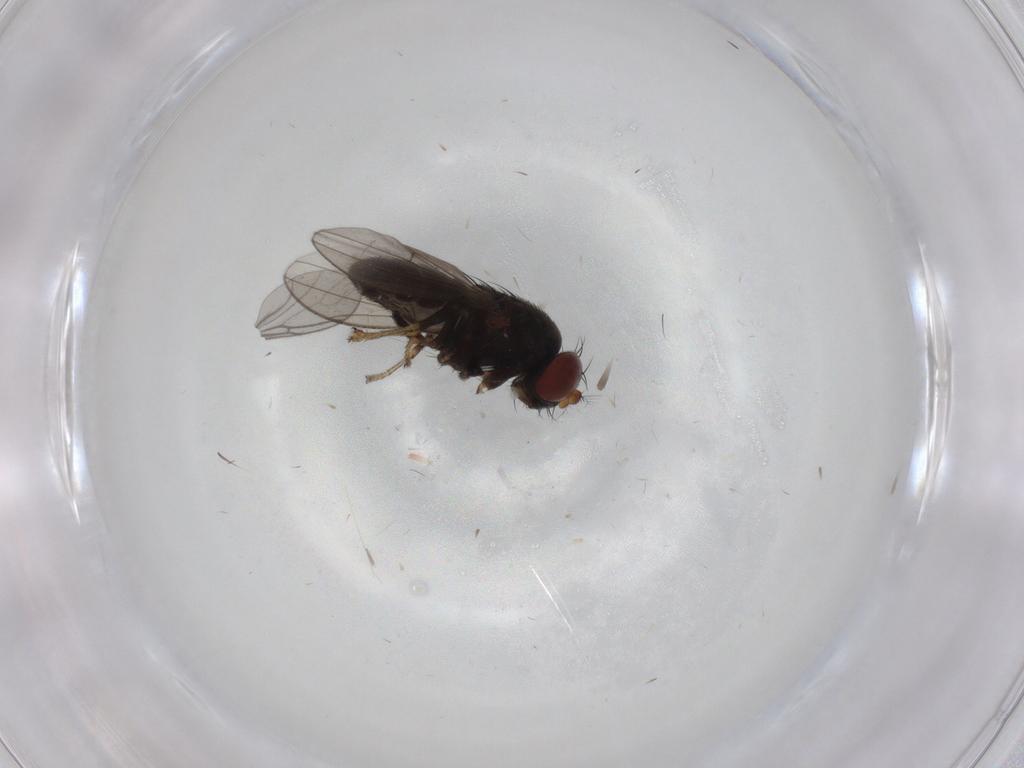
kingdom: Animalia
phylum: Arthropoda
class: Insecta
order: Diptera
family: Ephydridae
